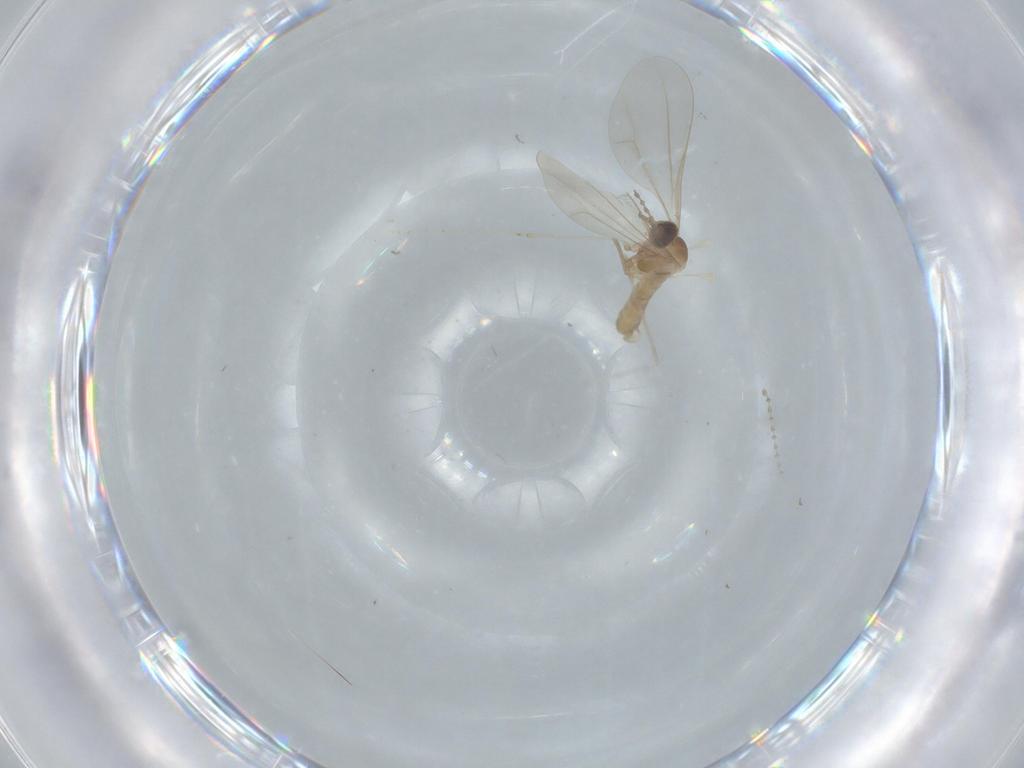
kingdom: Animalia
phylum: Arthropoda
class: Insecta
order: Diptera
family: Cecidomyiidae
